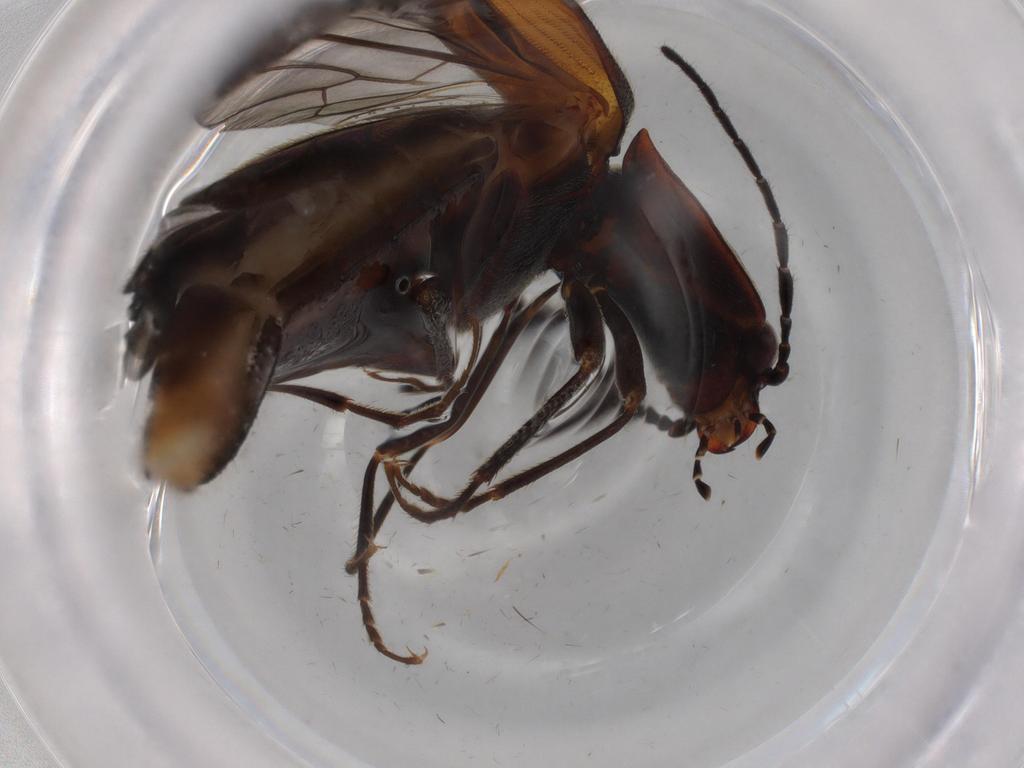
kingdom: Animalia
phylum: Arthropoda
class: Insecta
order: Coleoptera
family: Elateridae
